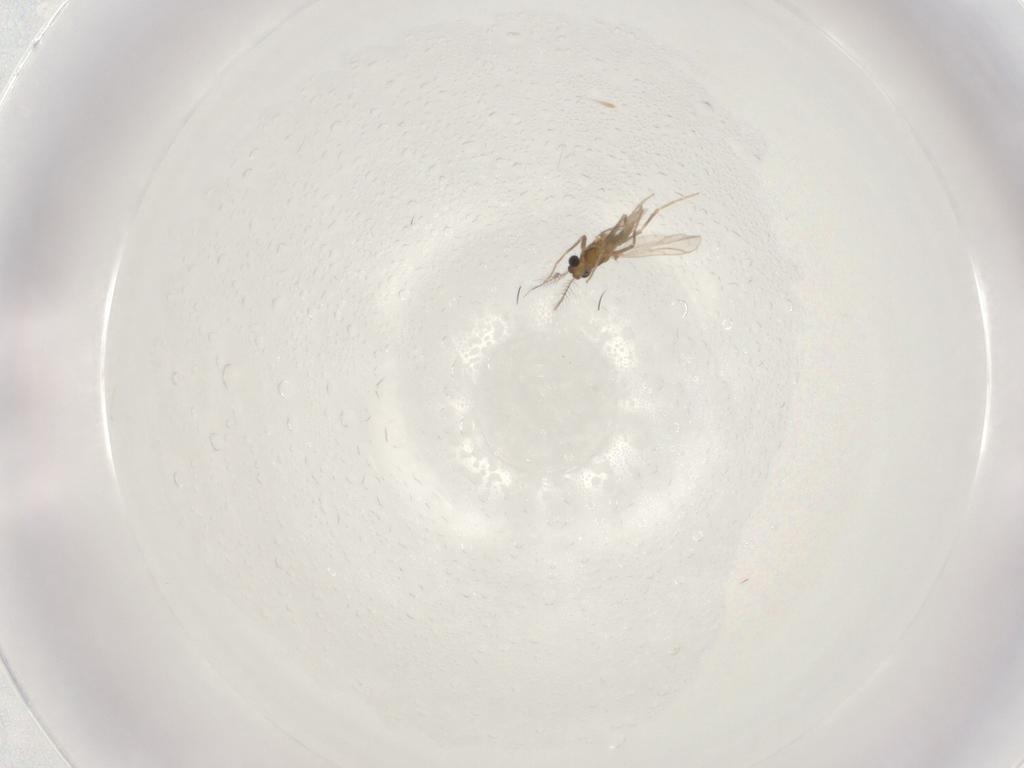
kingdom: Animalia
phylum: Arthropoda
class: Insecta
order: Diptera
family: Chironomidae
